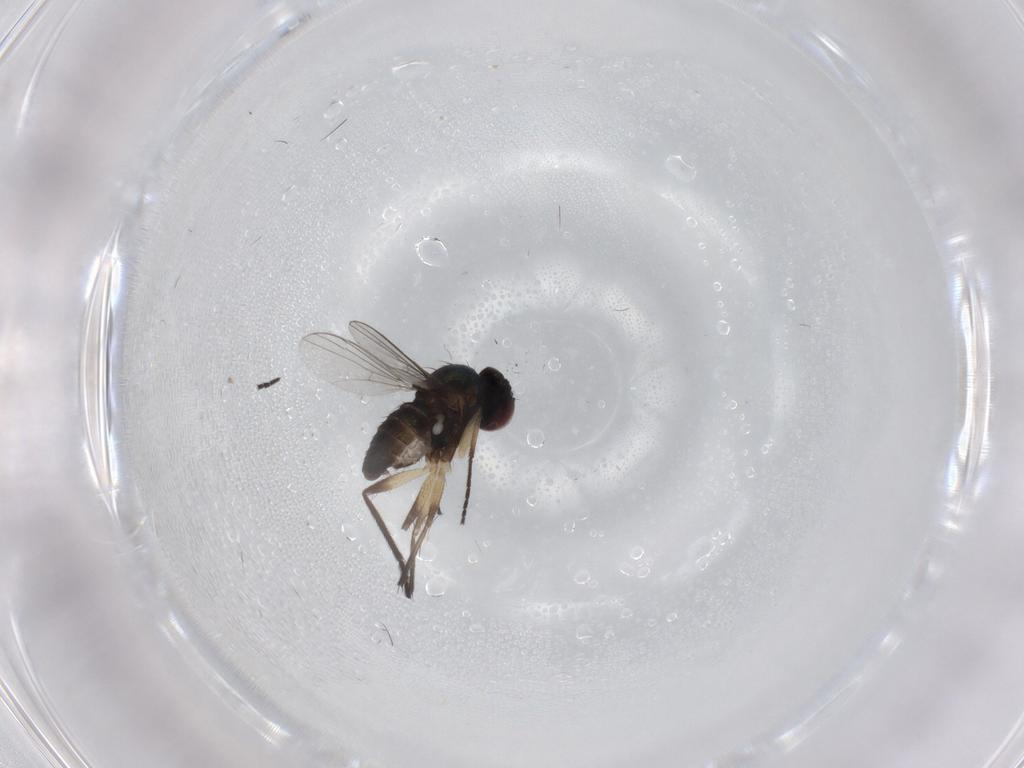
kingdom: Animalia
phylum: Arthropoda
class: Insecta
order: Diptera
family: Dolichopodidae
